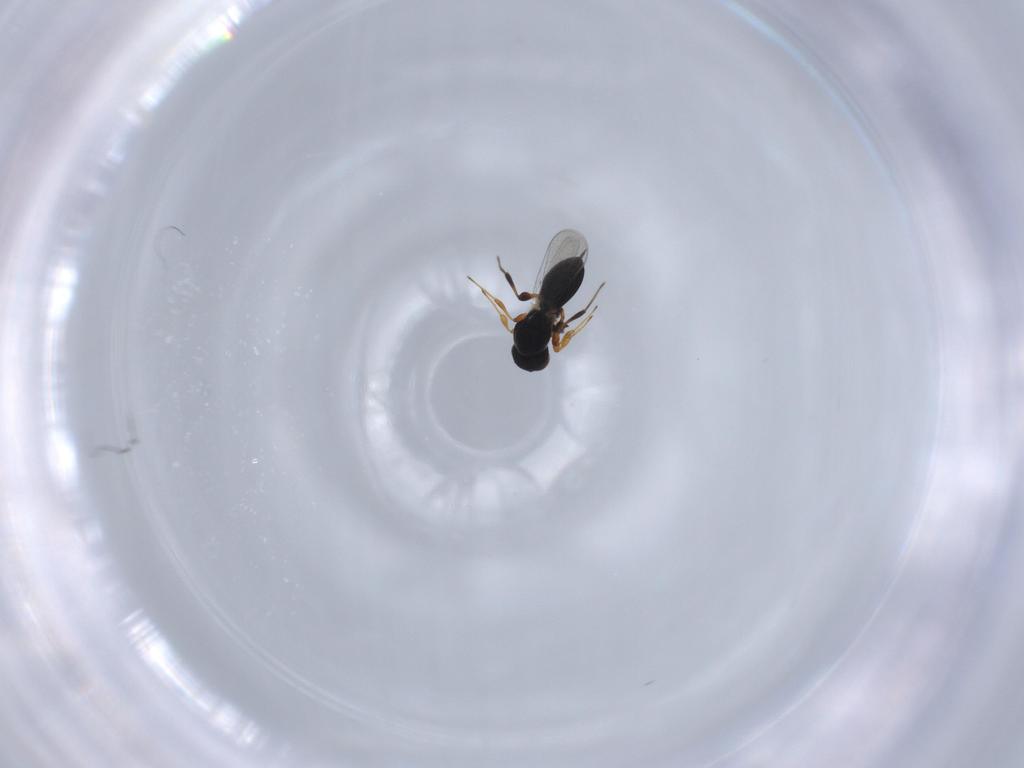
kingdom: Animalia
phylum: Arthropoda
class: Insecta
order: Hymenoptera
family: Platygastridae
